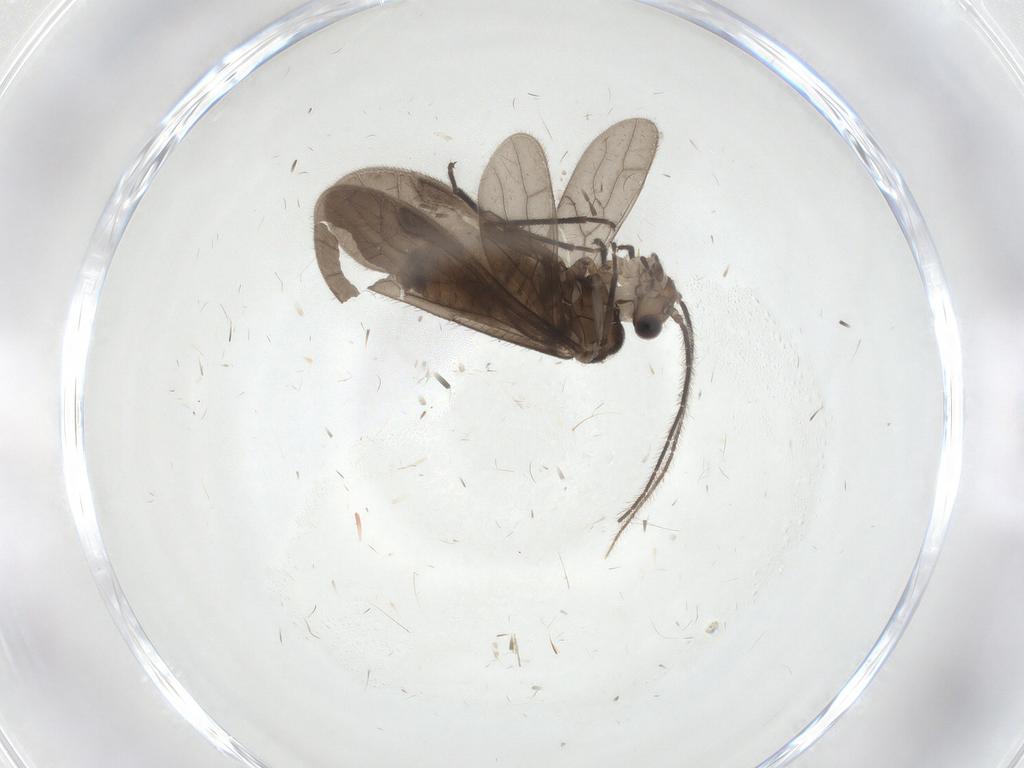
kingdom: Animalia
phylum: Arthropoda
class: Insecta
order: Psocodea
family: Caeciliusidae
